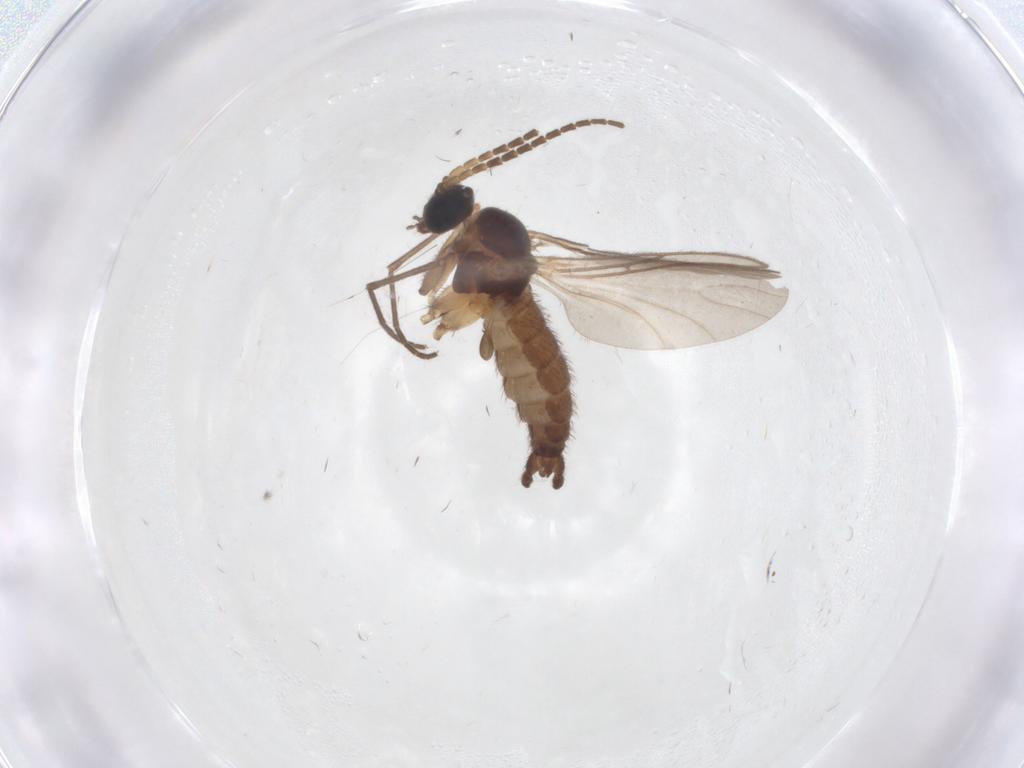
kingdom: Animalia
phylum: Arthropoda
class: Insecta
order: Diptera
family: Sciaridae
